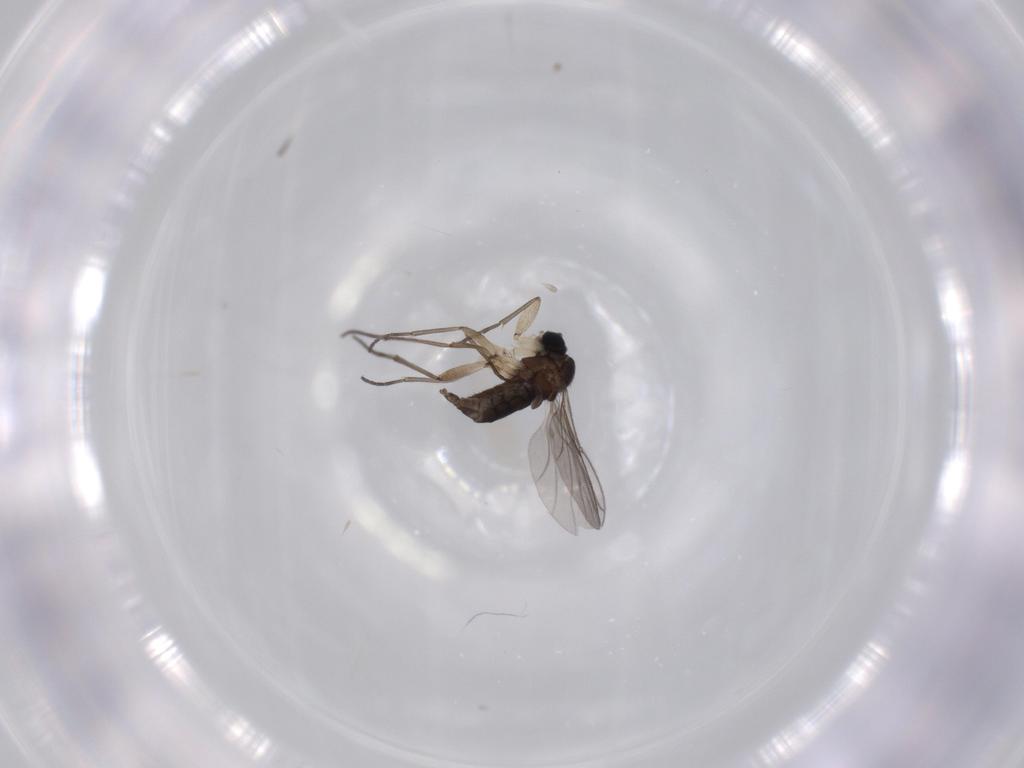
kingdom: Animalia
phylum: Arthropoda
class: Insecta
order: Diptera
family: Sciaridae
